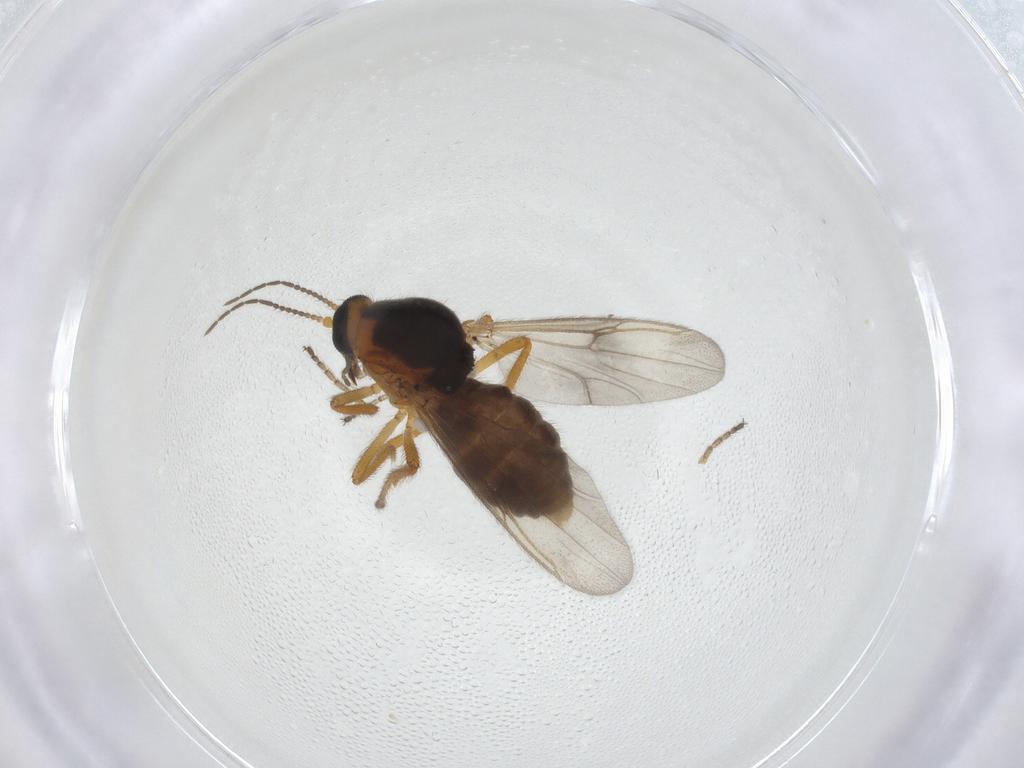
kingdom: Animalia
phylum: Arthropoda
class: Insecta
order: Diptera
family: Ceratopogonidae
